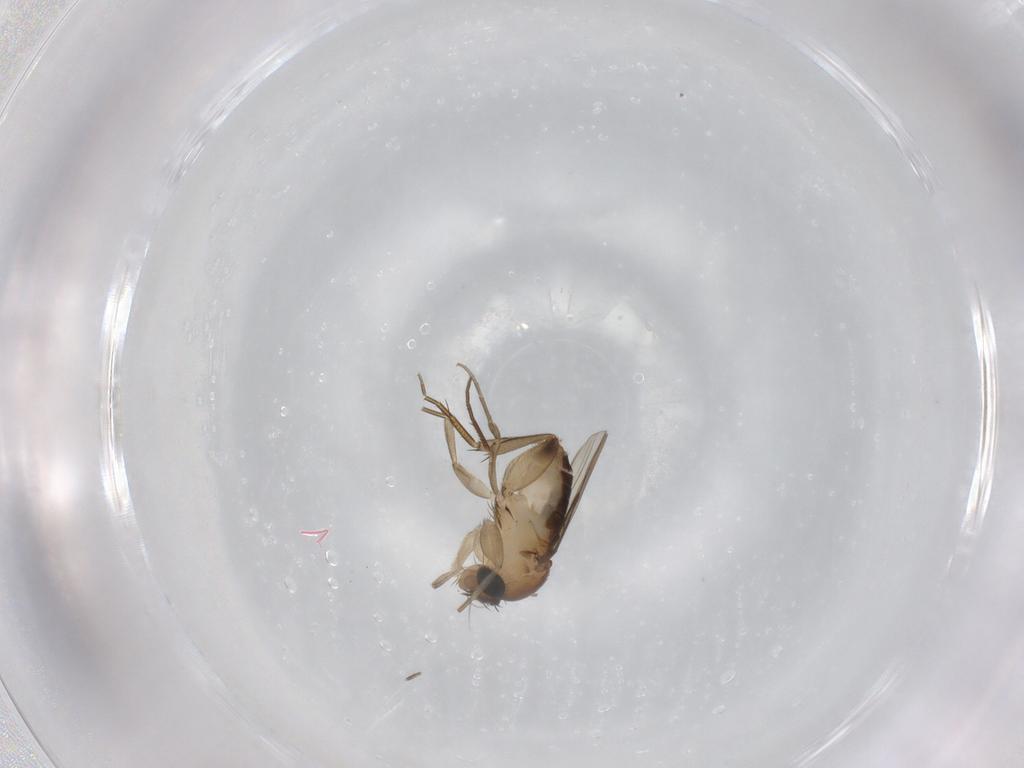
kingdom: Animalia
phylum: Arthropoda
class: Insecta
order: Diptera
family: Phoridae
